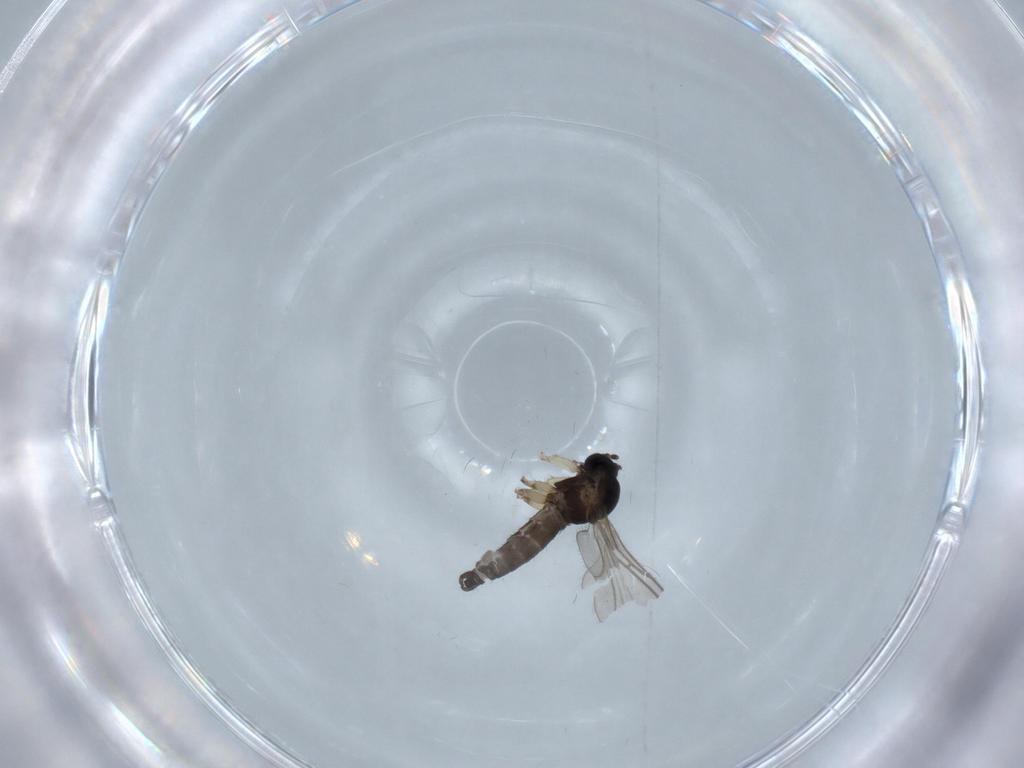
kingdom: Animalia
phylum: Arthropoda
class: Insecta
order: Diptera
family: Sciaridae
